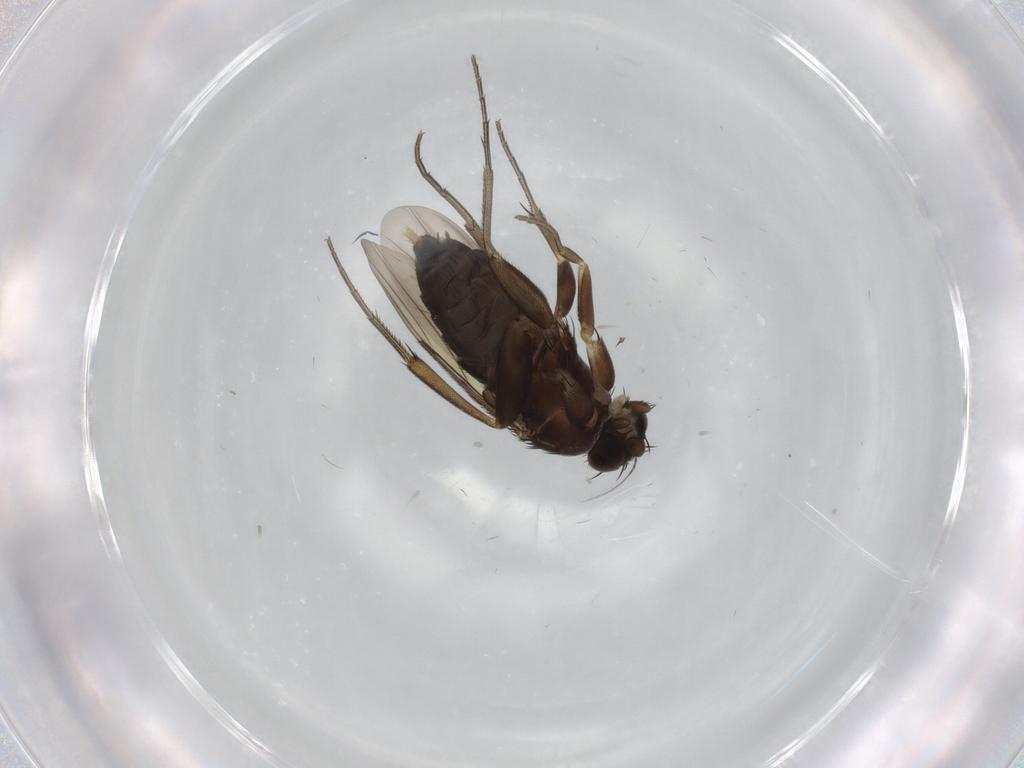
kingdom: Animalia
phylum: Arthropoda
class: Insecta
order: Diptera
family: Phoridae
